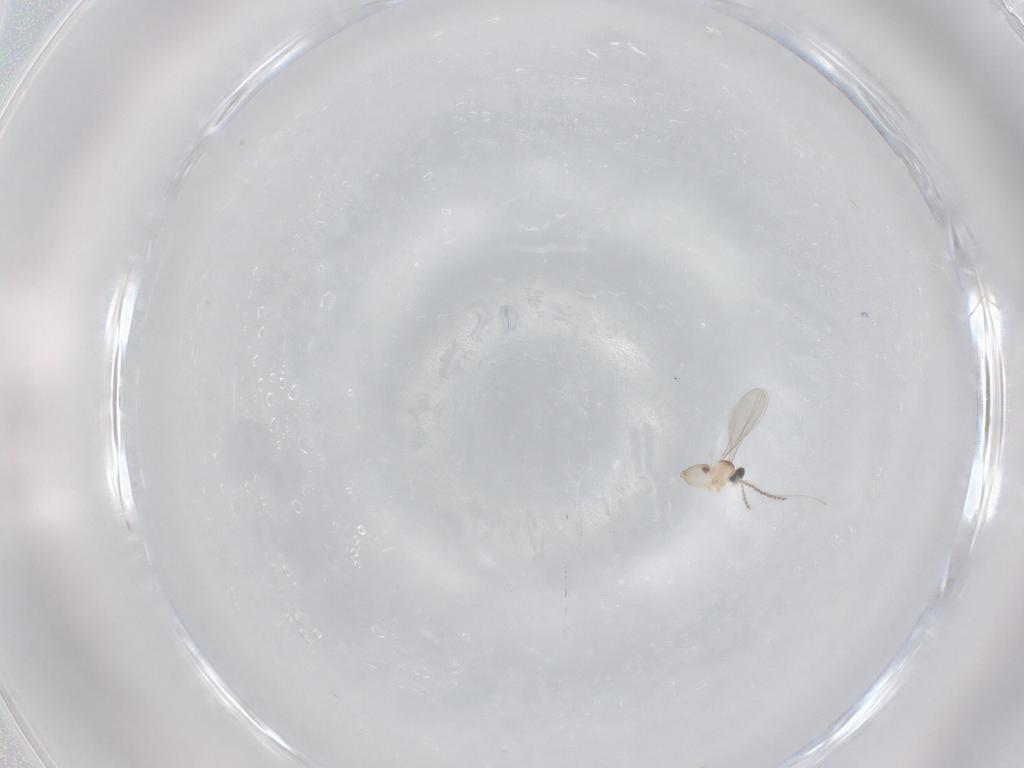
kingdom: Animalia
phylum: Arthropoda
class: Insecta
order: Diptera
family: Cecidomyiidae
